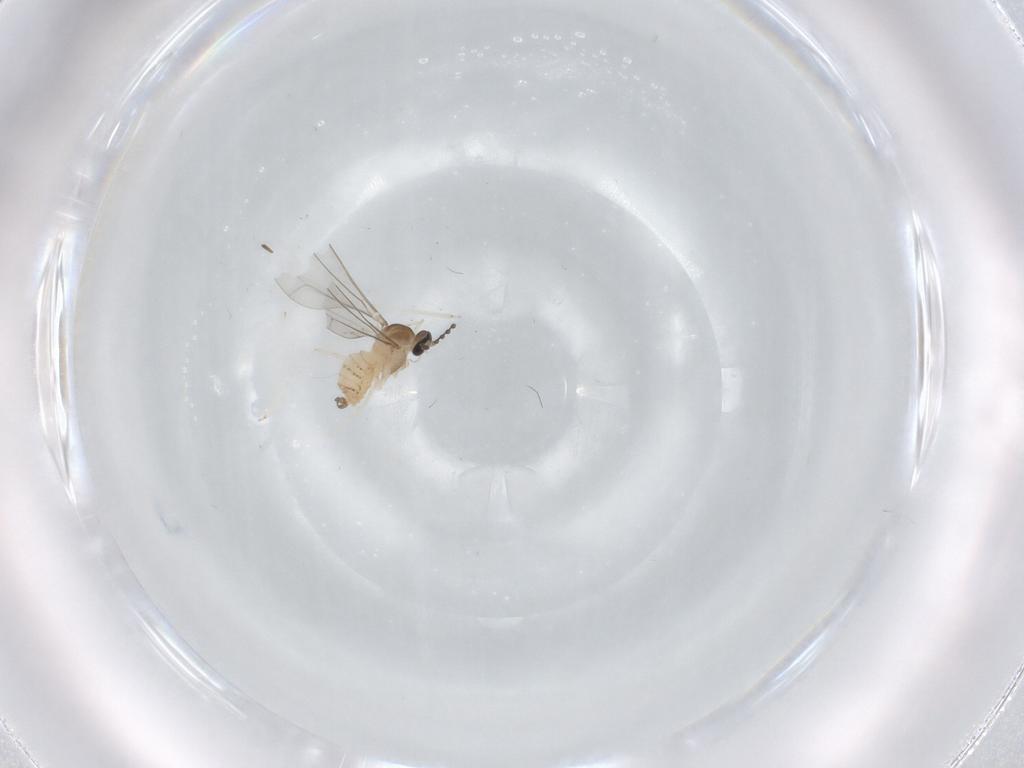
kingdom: Animalia
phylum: Arthropoda
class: Insecta
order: Diptera
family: Cecidomyiidae
